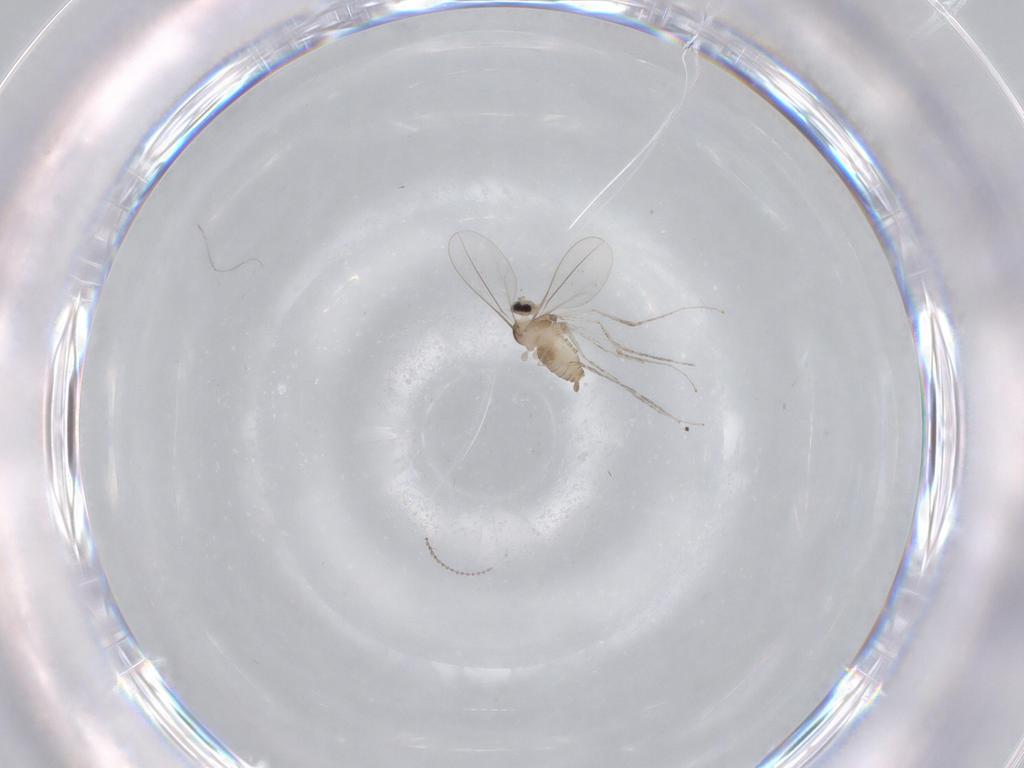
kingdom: Animalia
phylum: Arthropoda
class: Insecta
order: Diptera
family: Cecidomyiidae
